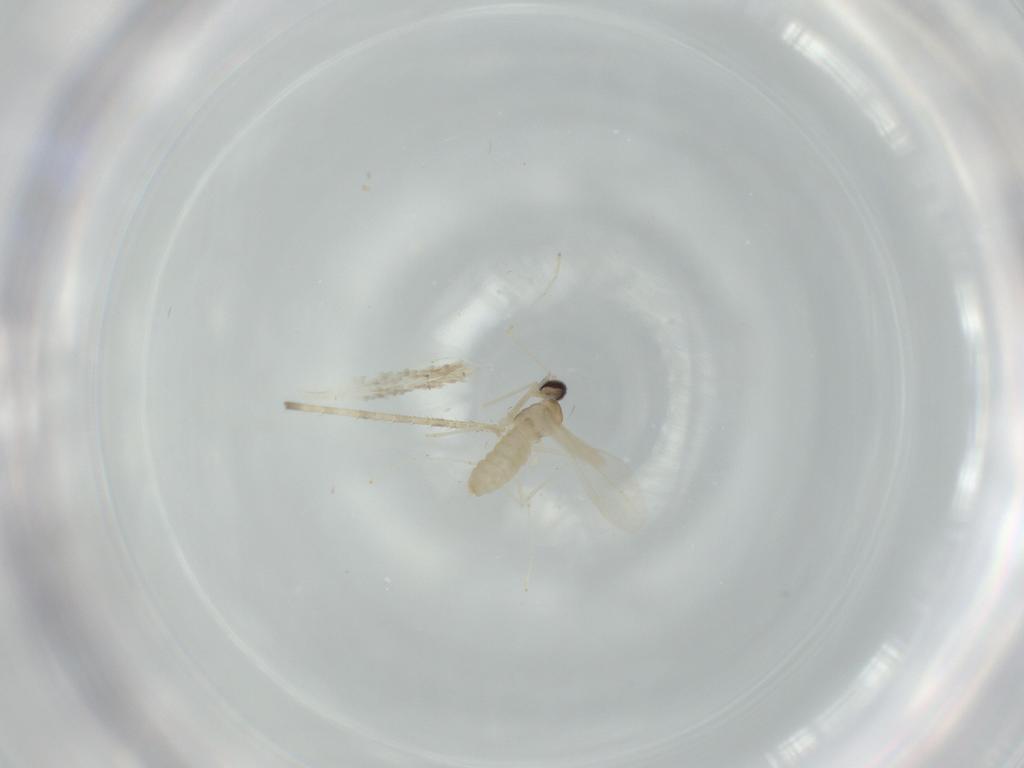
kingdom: Animalia
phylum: Arthropoda
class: Insecta
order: Diptera
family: Cecidomyiidae
